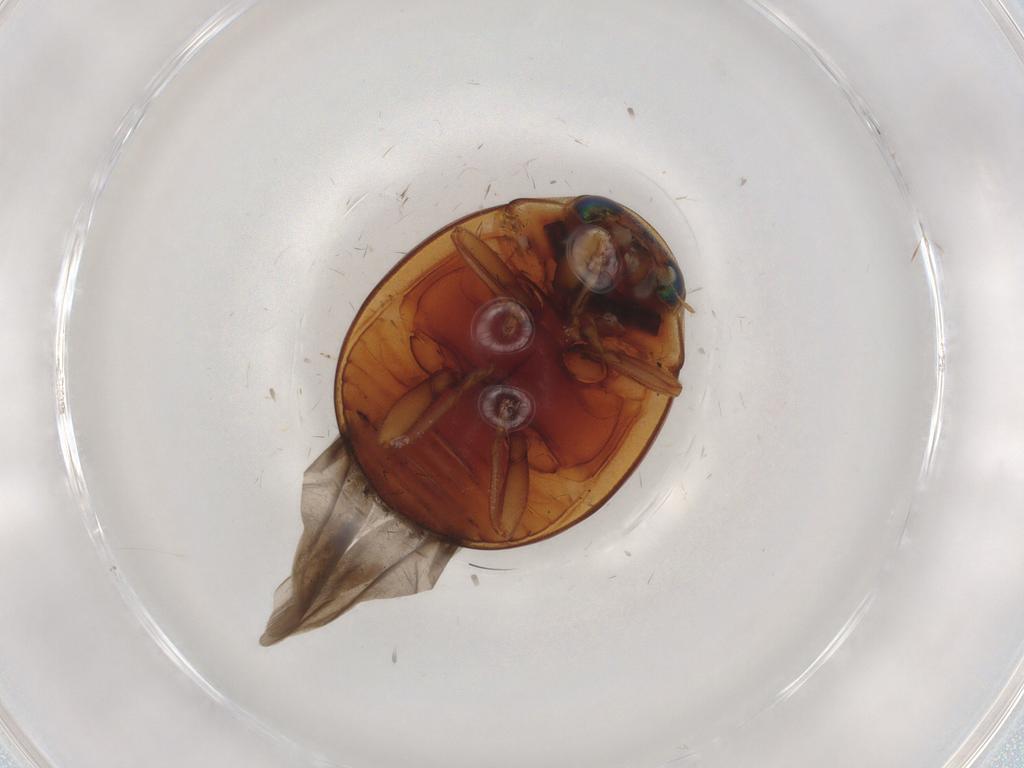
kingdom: Animalia
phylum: Arthropoda
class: Insecta
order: Coleoptera
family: Coccinellidae
